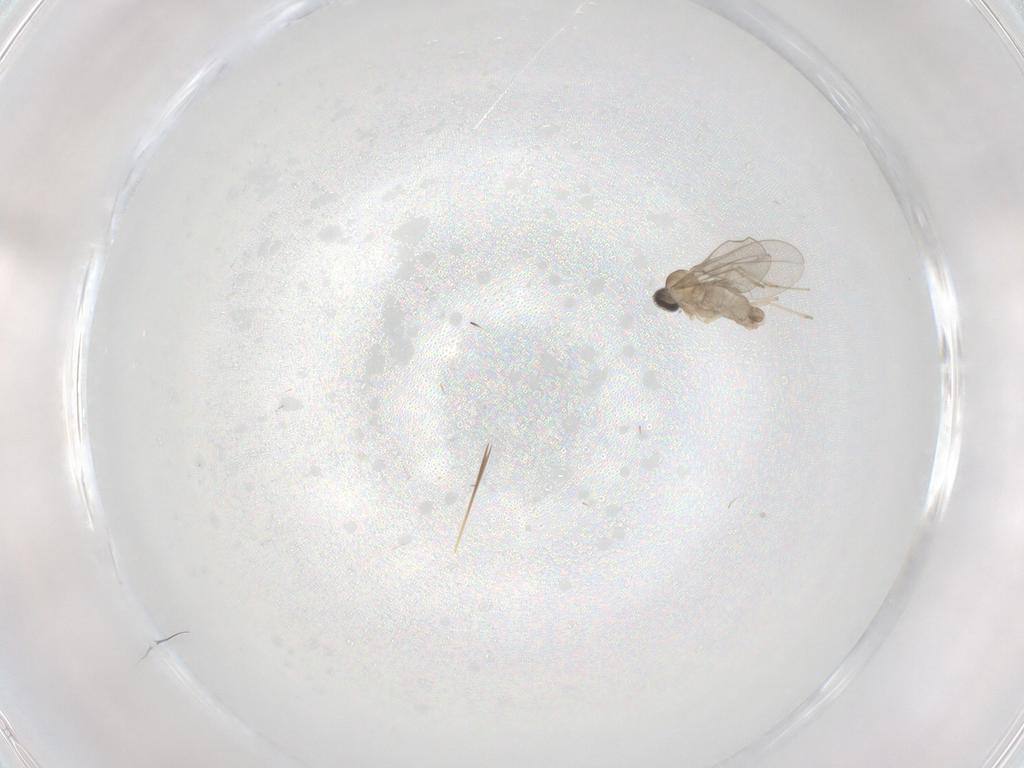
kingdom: Animalia
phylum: Arthropoda
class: Insecta
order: Diptera
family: Cecidomyiidae
